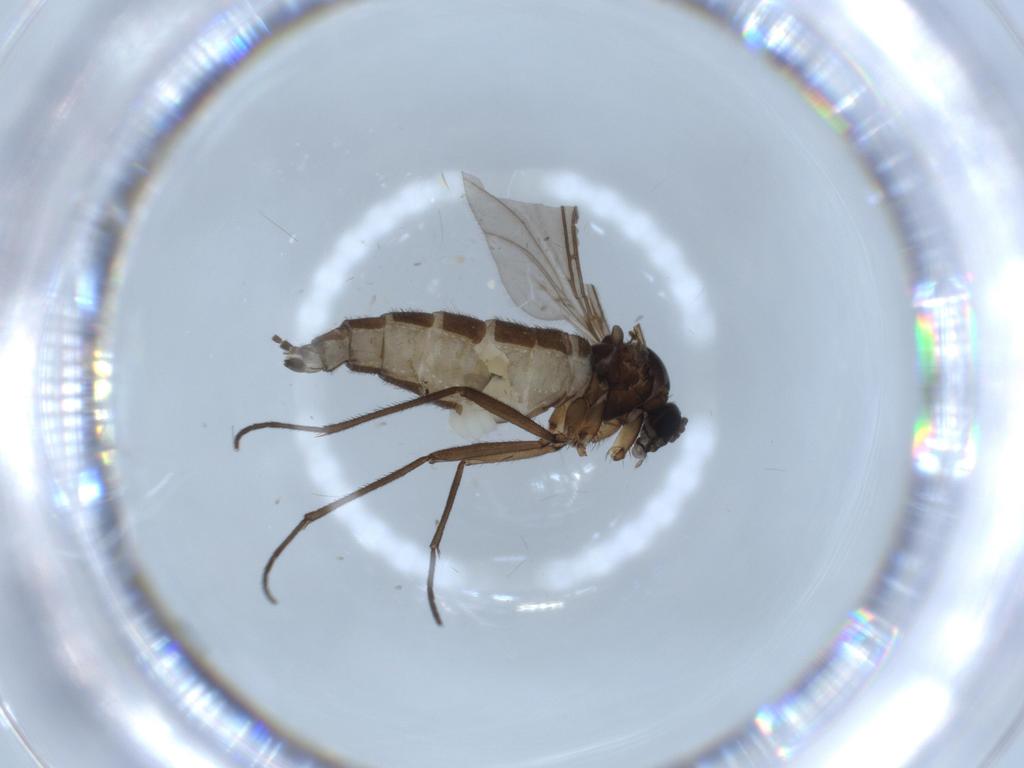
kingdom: Animalia
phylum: Arthropoda
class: Insecta
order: Diptera
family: Sciaridae
